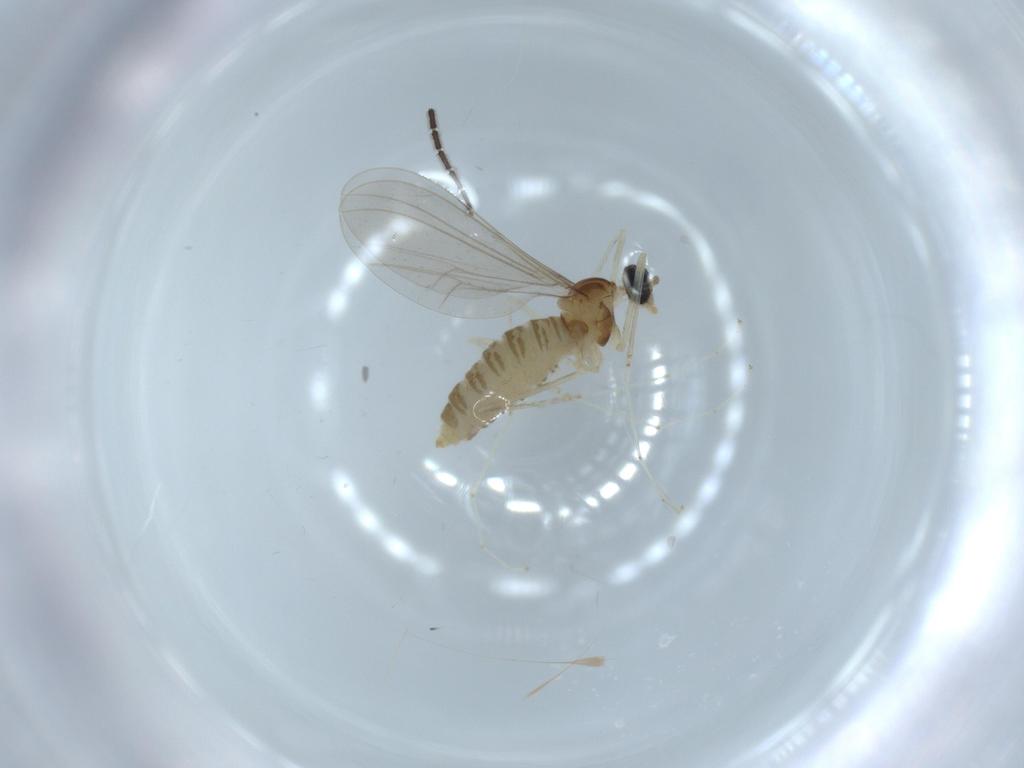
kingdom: Animalia
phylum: Arthropoda
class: Insecta
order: Diptera
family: Cecidomyiidae
